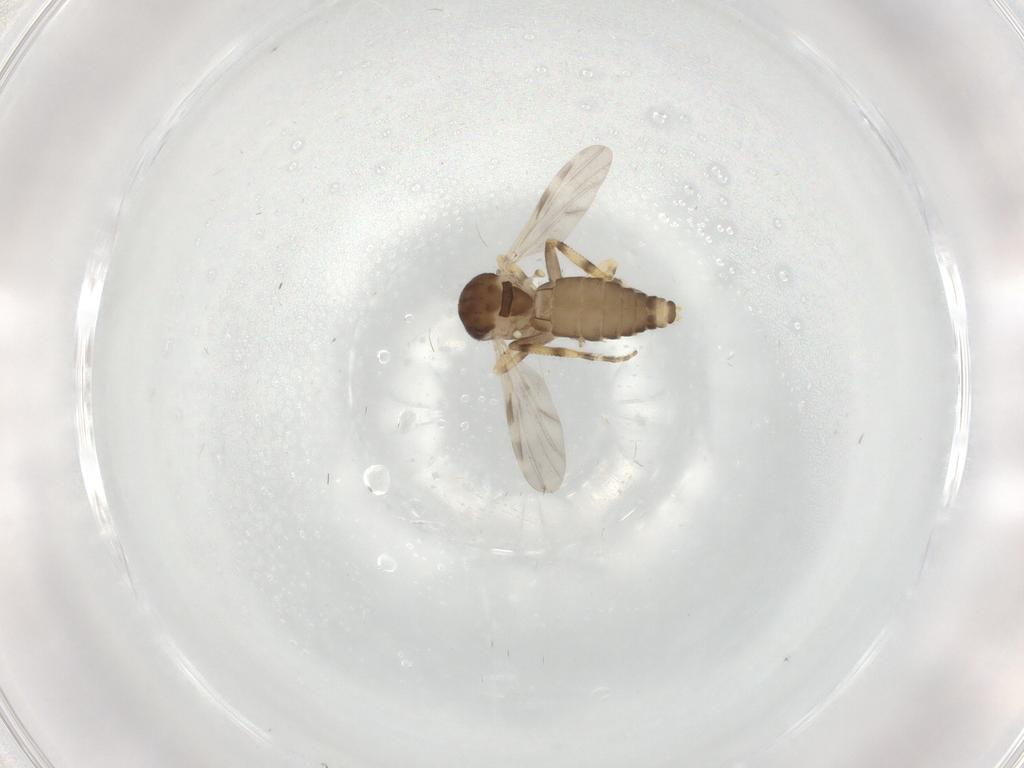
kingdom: Animalia
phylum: Arthropoda
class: Insecta
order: Diptera
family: Ceratopogonidae
